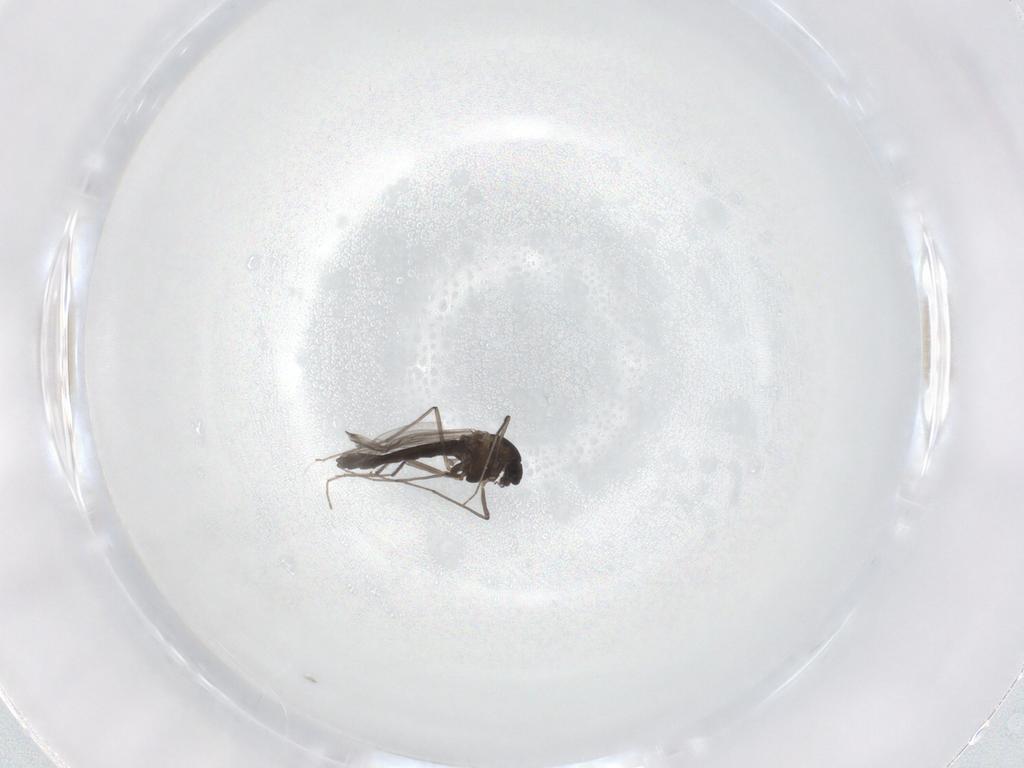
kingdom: Animalia
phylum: Arthropoda
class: Insecta
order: Diptera
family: Chironomidae
